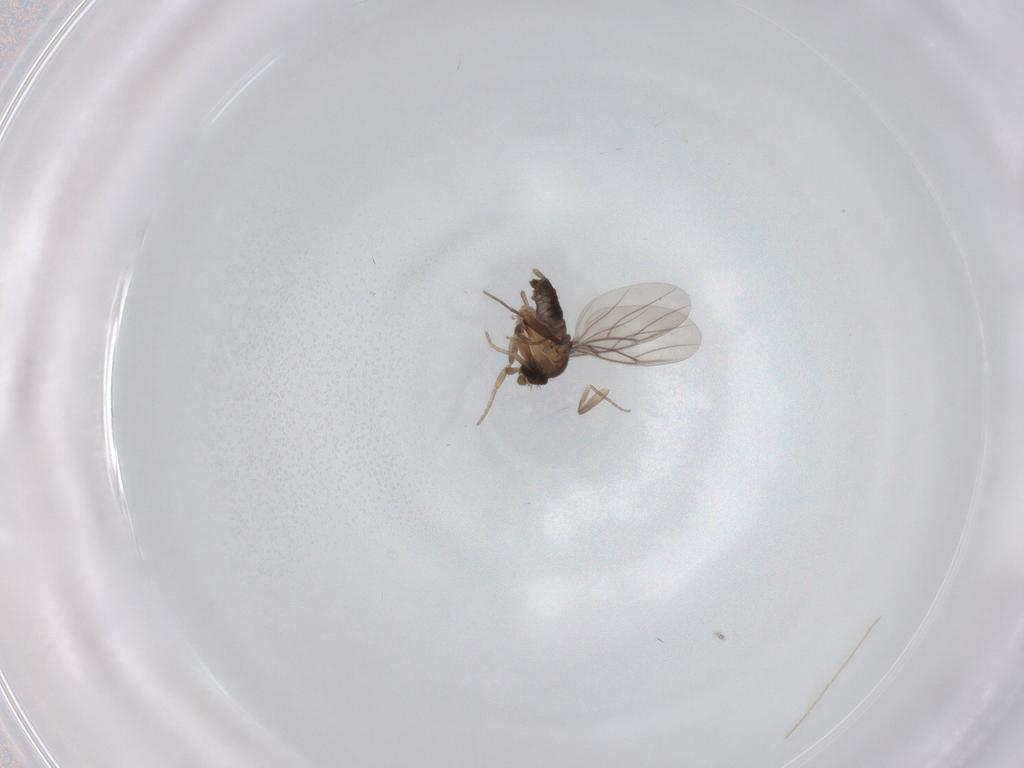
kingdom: Animalia
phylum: Arthropoda
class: Insecta
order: Diptera
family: Chironomidae
